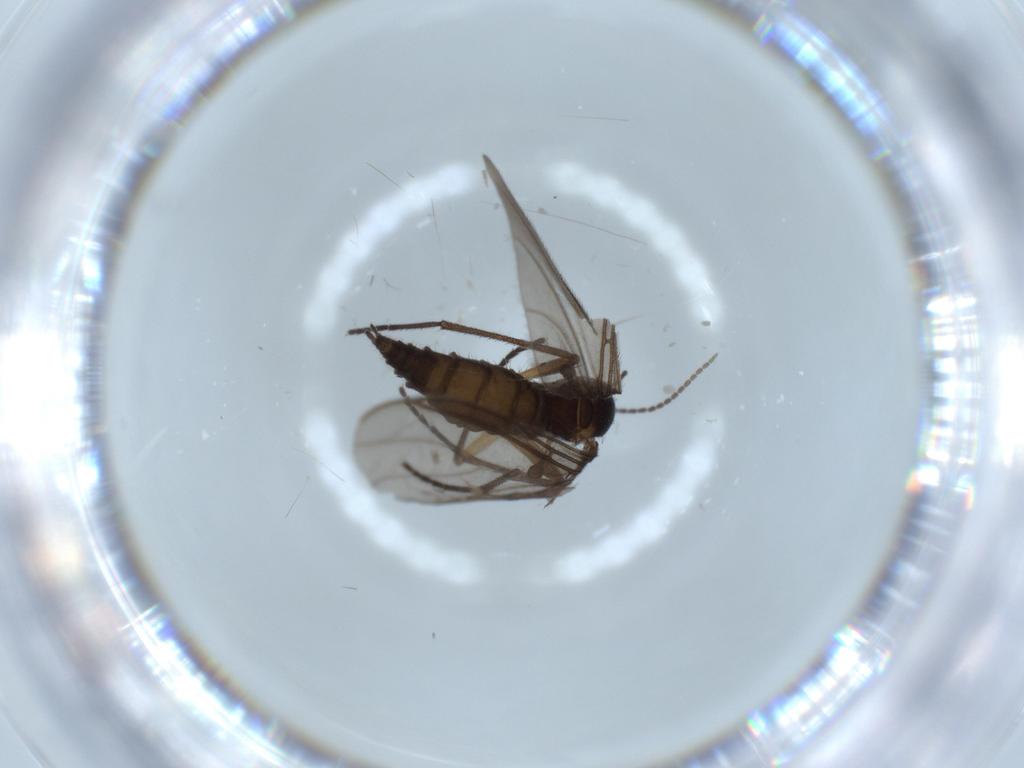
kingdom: Animalia
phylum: Arthropoda
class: Insecta
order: Diptera
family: Sciaridae
